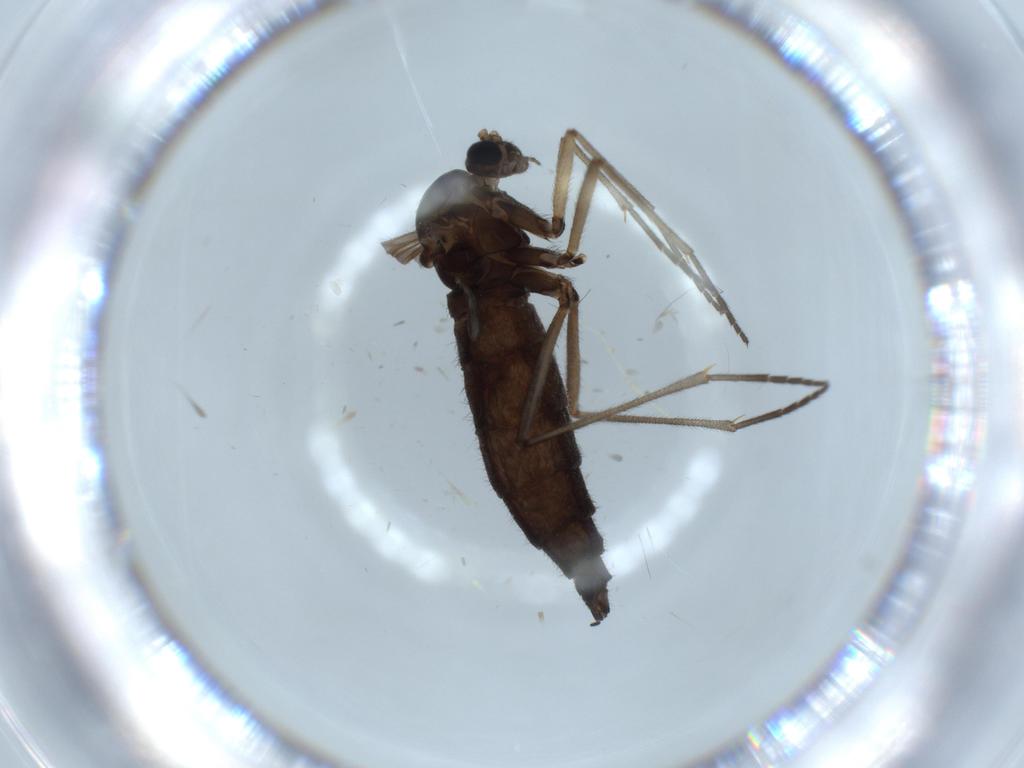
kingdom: Animalia
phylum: Arthropoda
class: Insecta
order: Diptera
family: Sciaridae
